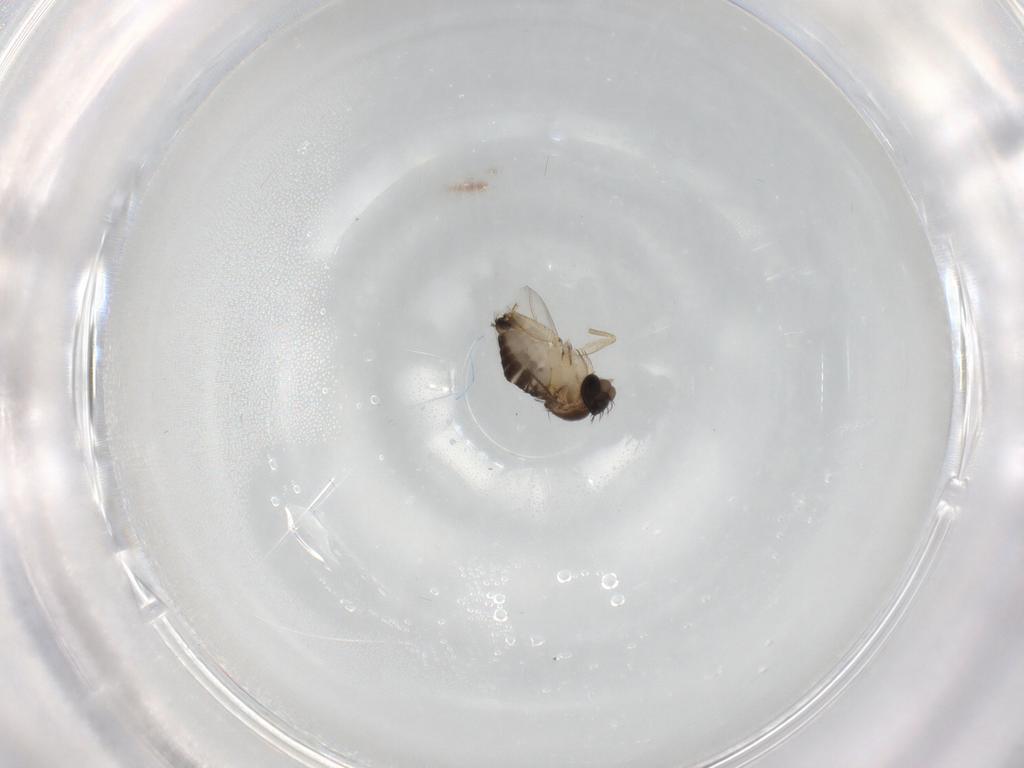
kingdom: Animalia
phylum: Arthropoda
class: Insecta
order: Diptera
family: Phoridae
